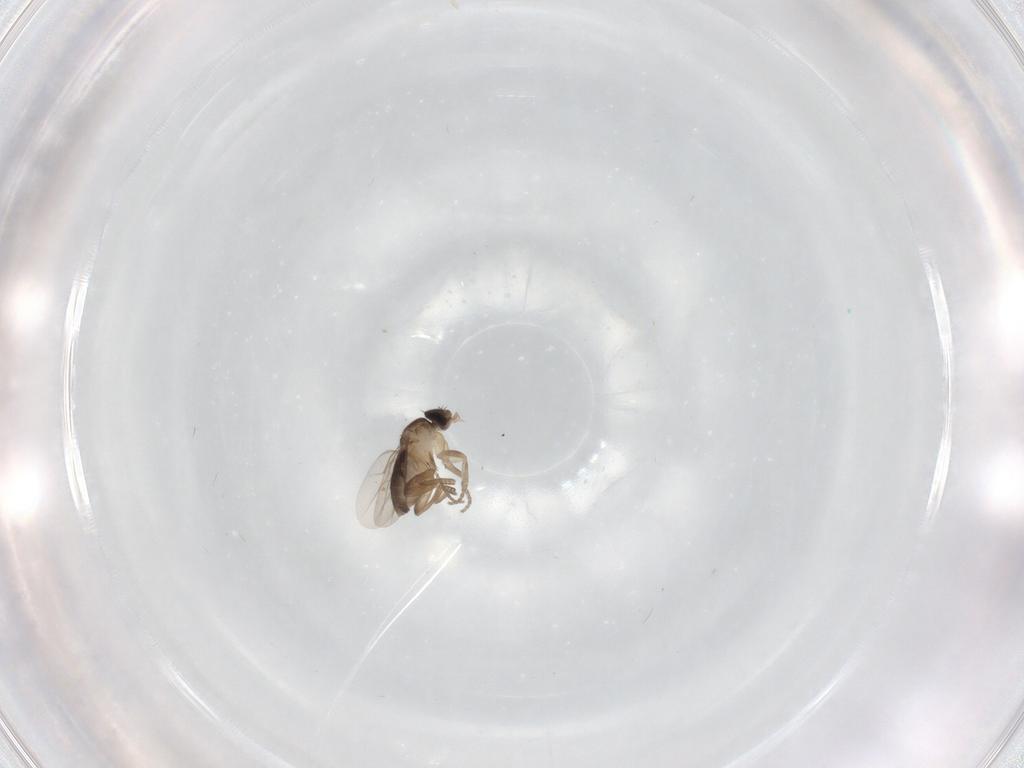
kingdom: Animalia
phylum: Arthropoda
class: Insecta
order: Diptera
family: Phoridae
